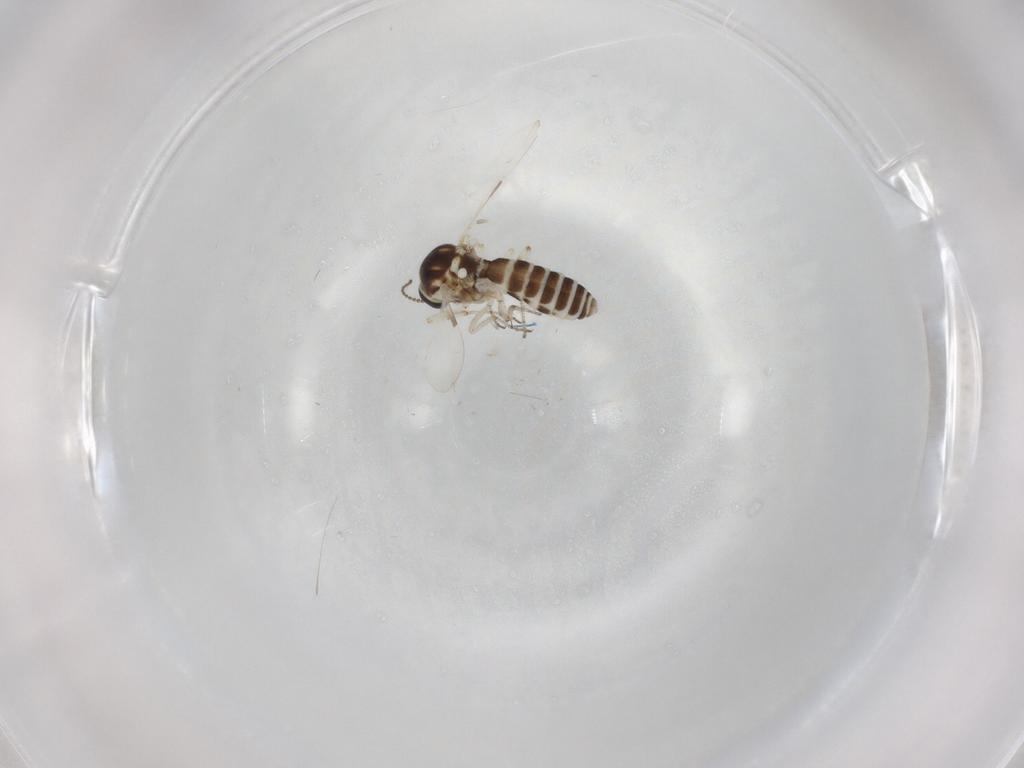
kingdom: Animalia
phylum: Arthropoda
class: Insecta
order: Diptera
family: Ceratopogonidae
